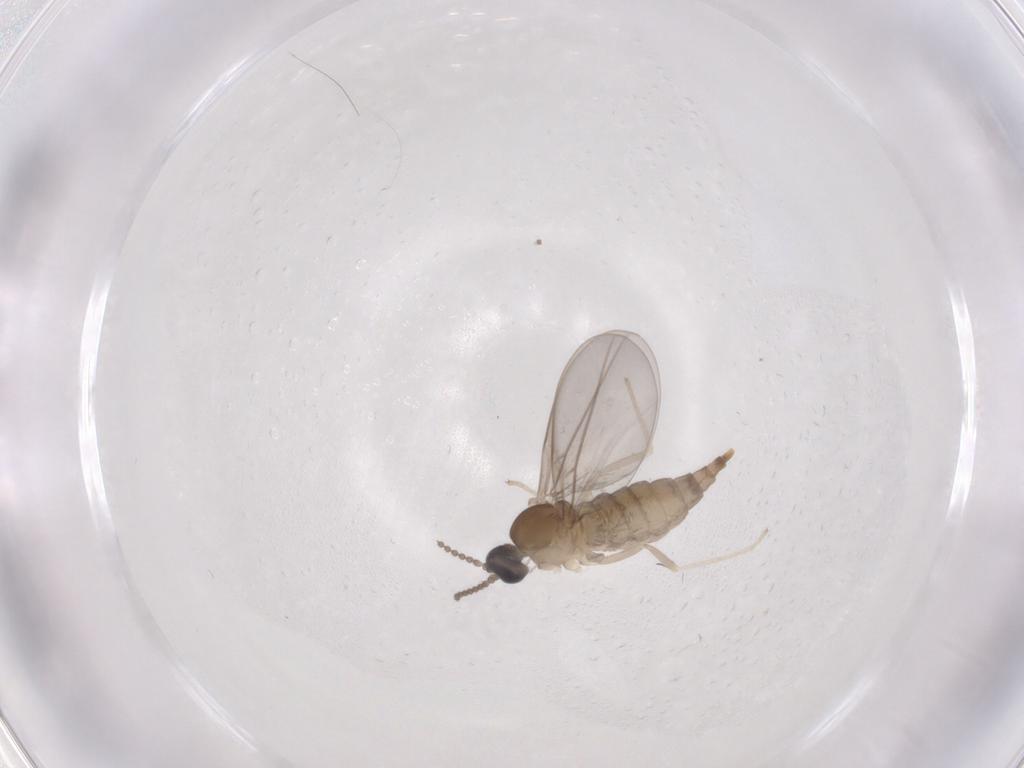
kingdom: Animalia
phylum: Arthropoda
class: Insecta
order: Diptera
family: Cecidomyiidae
